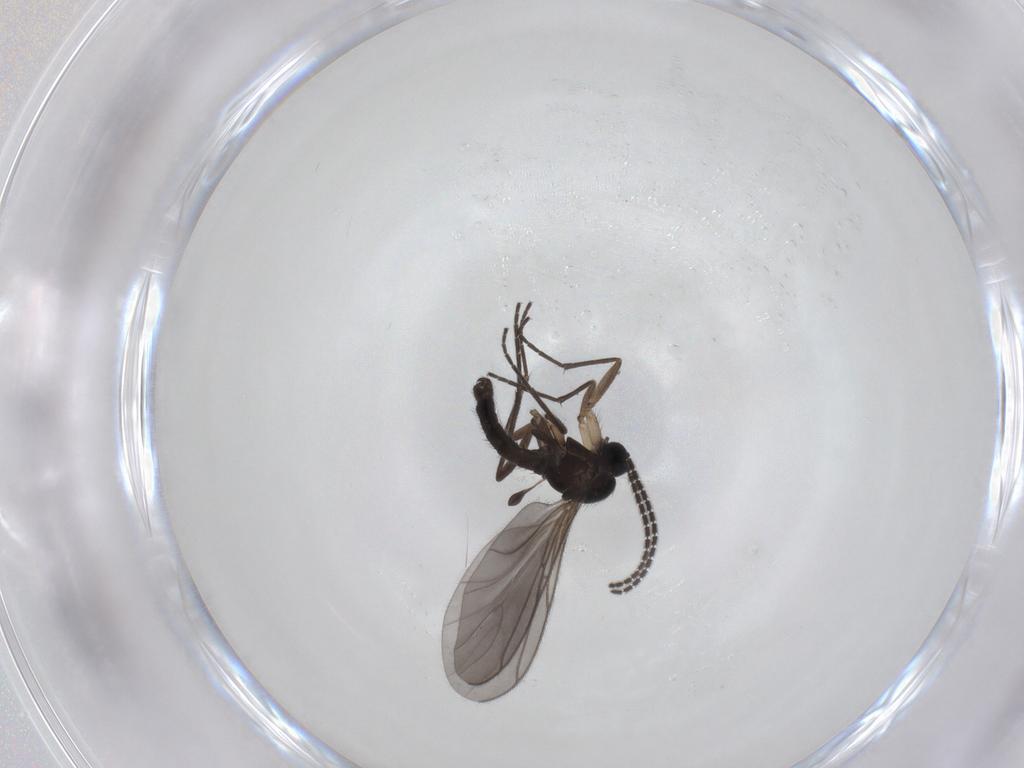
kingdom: Animalia
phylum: Arthropoda
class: Insecta
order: Diptera
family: Sciaridae
